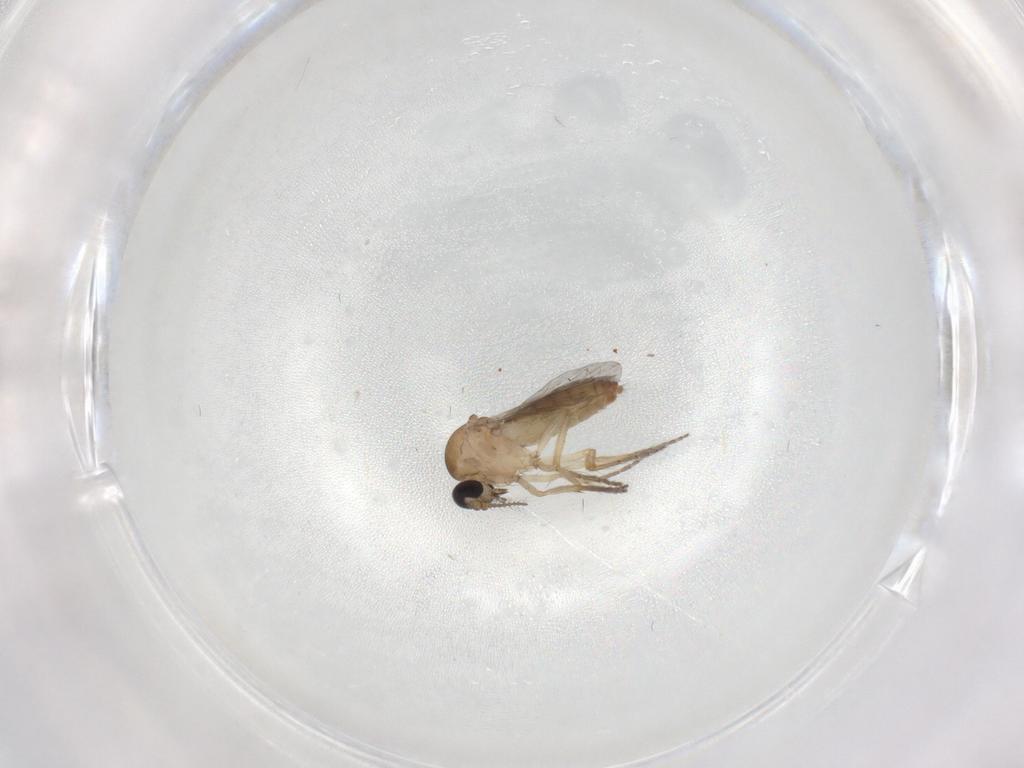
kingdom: Animalia
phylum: Arthropoda
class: Insecta
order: Diptera
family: Ceratopogonidae
